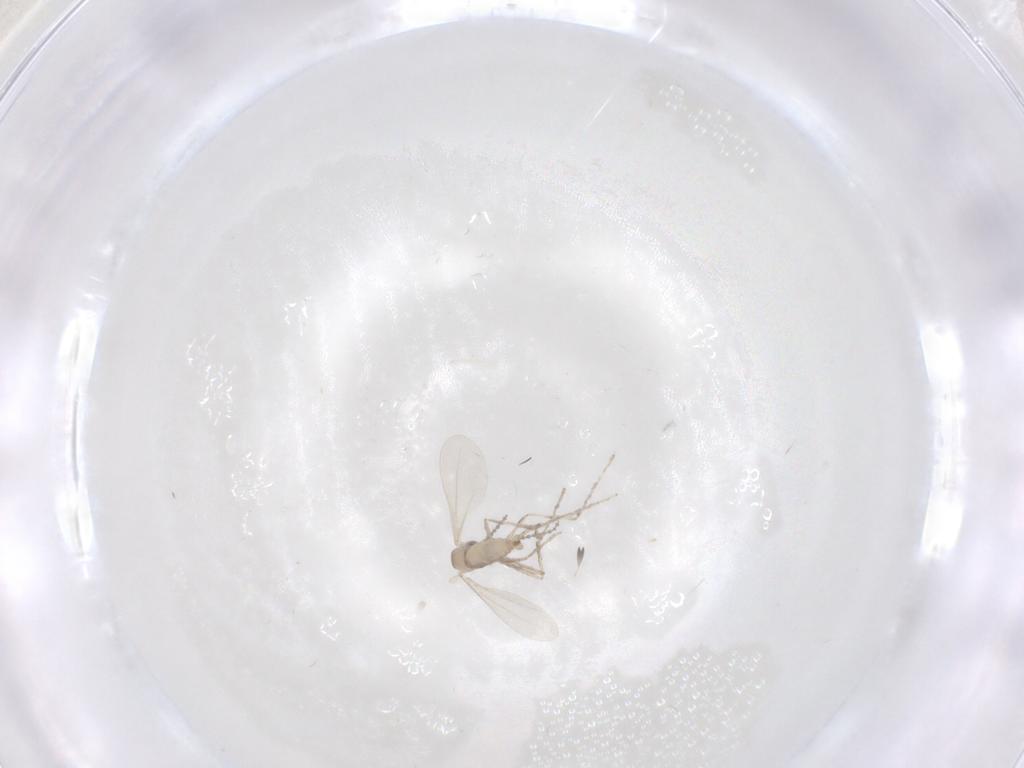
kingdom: Animalia
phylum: Arthropoda
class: Insecta
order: Diptera
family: Cecidomyiidae
